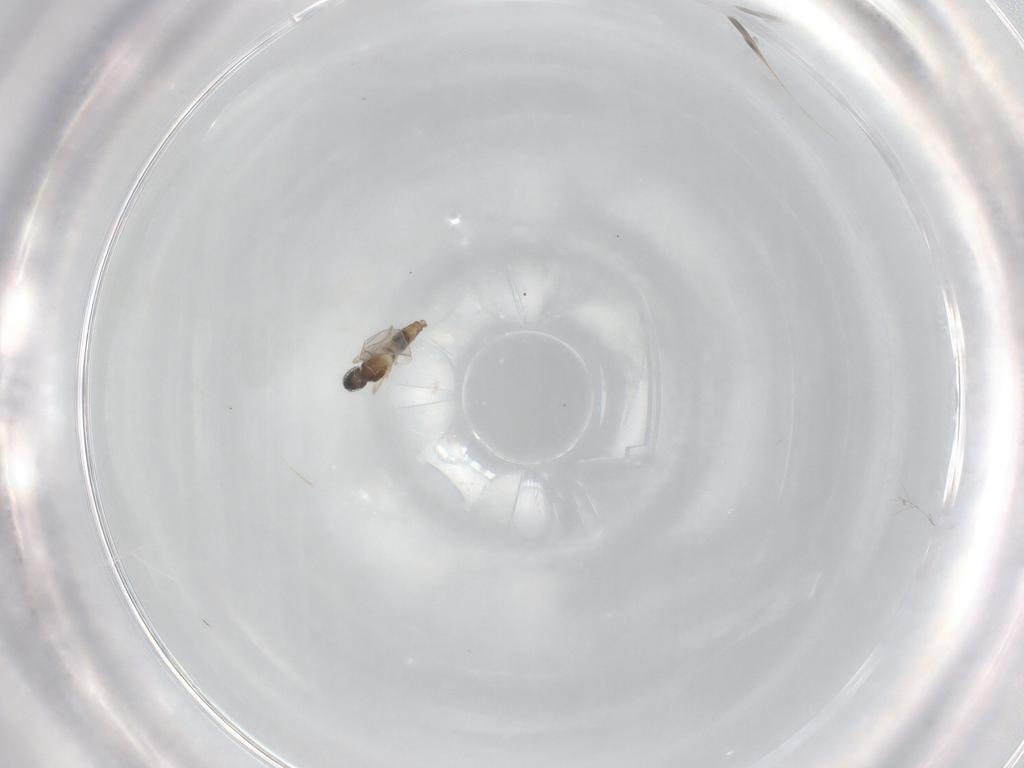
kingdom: Animalia
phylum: Arthropoda
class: Insecta
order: Diptera
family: Cecidomyiidae
